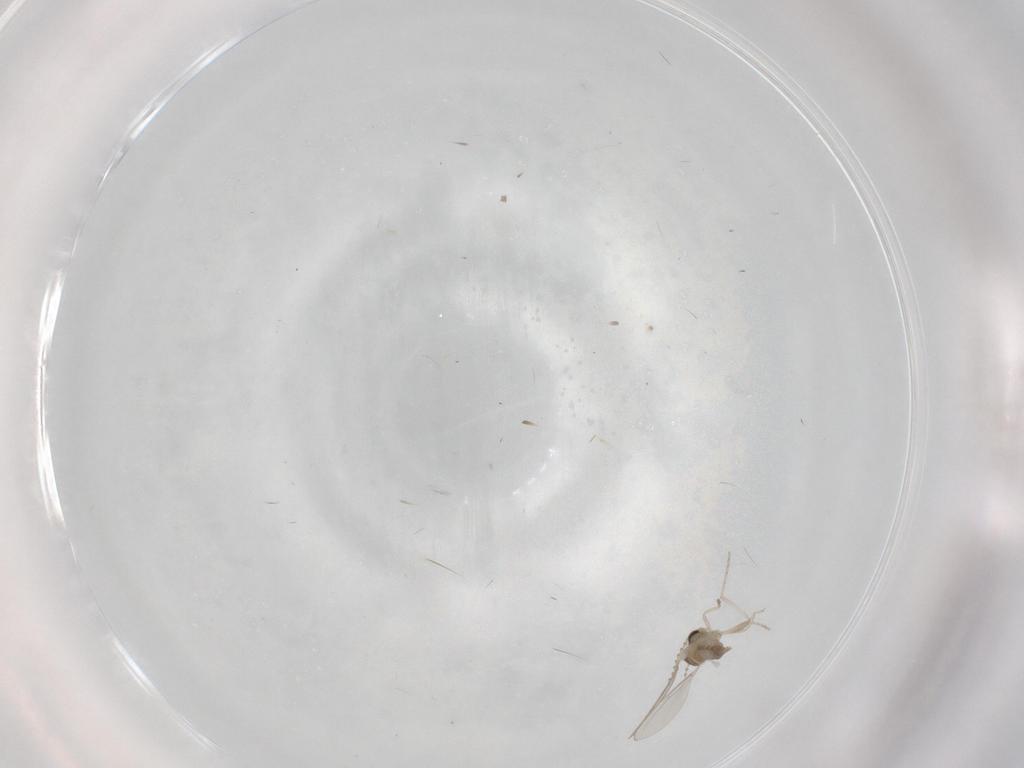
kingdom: Animalia
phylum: Arthropoda
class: Insecta
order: Diptera
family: Cecidomyiidae
